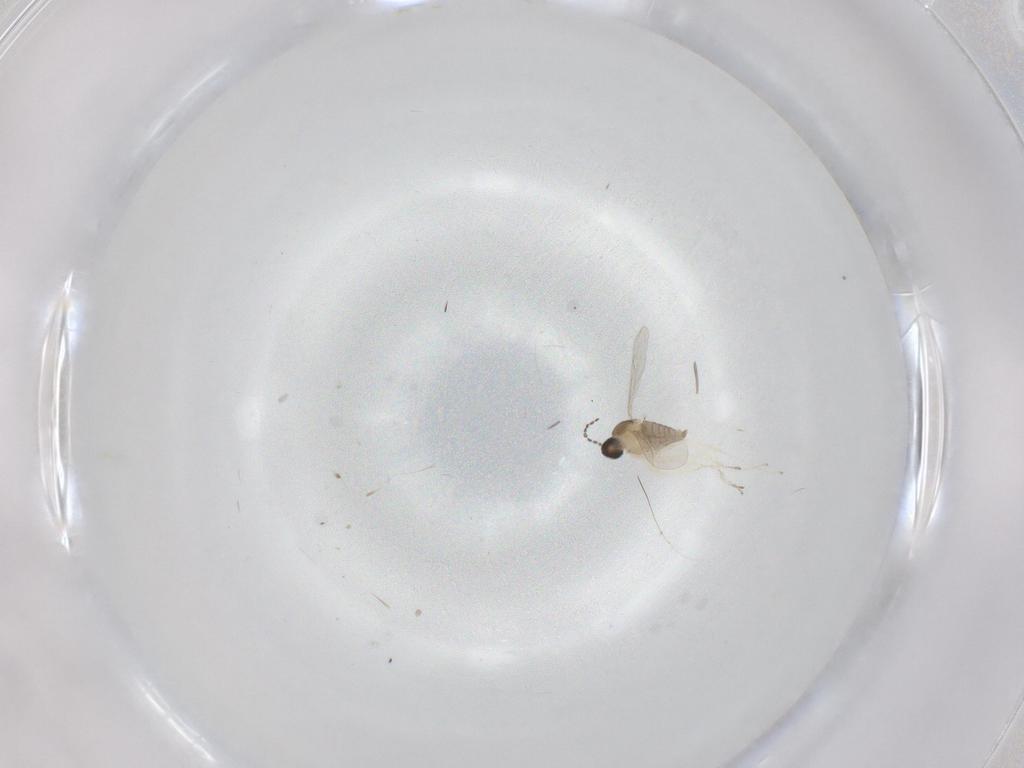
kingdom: Animalia
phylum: Arthropoda
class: Insecta
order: Diptera
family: Cecidomyiidae
